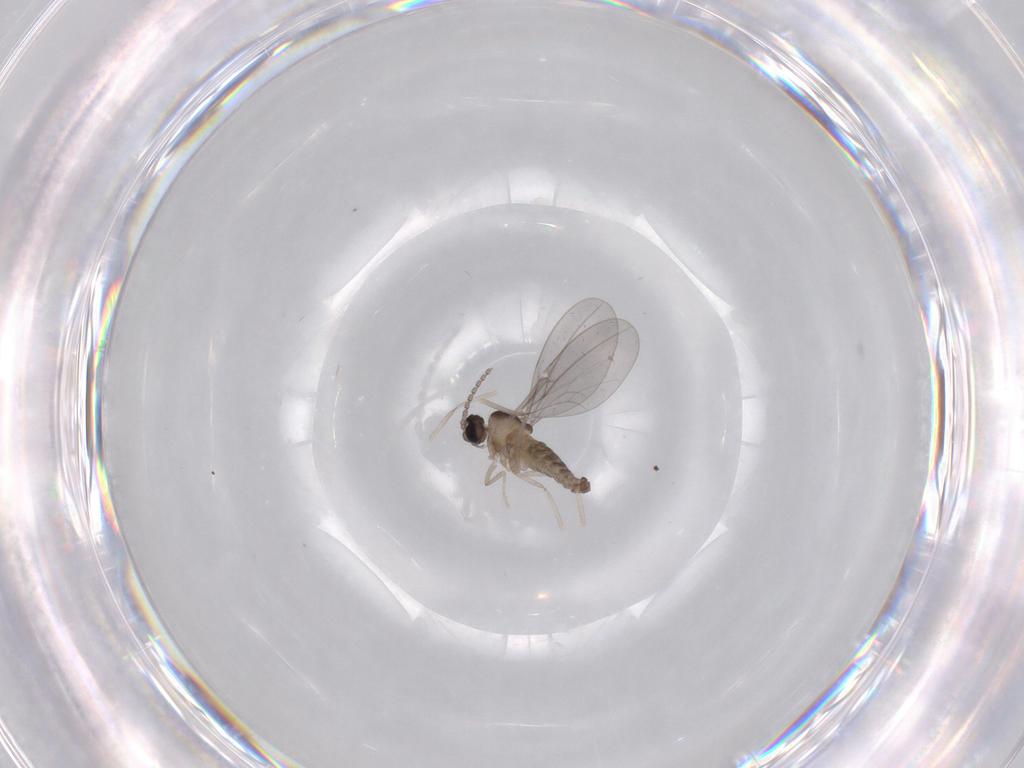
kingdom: Animalia
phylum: Arthropoda
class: Insecta
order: Diptera
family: Cecidomyiidae
